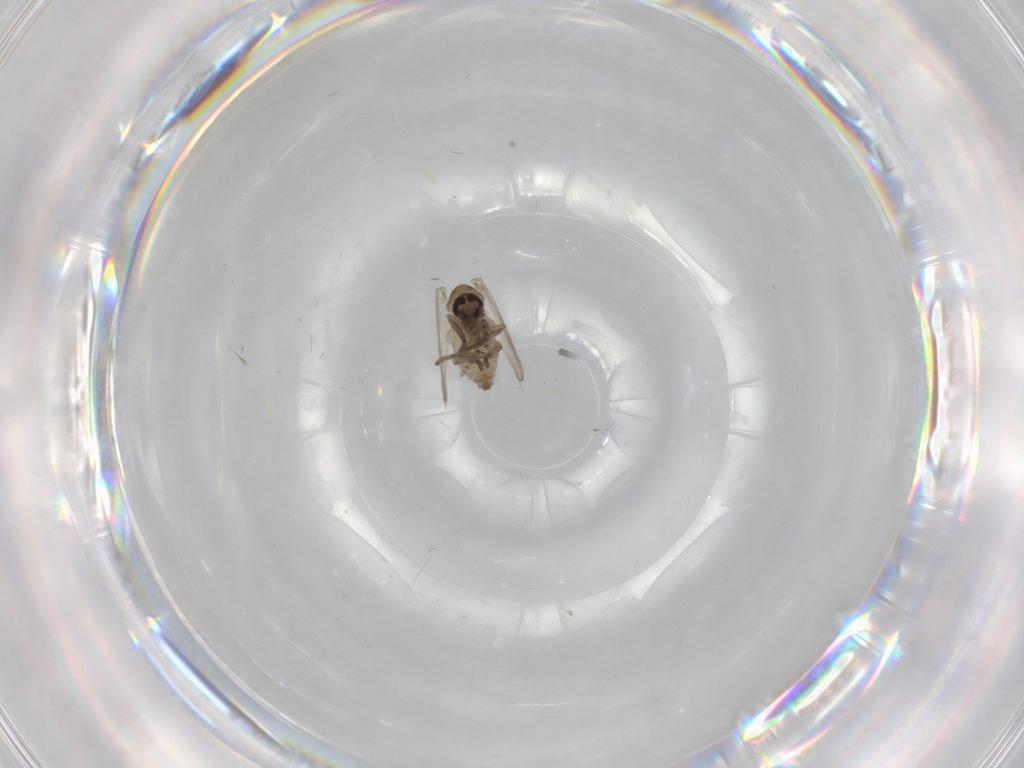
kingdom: Animalia
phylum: Arthropoda
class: Insecta
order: Diptera
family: Psychodidae
